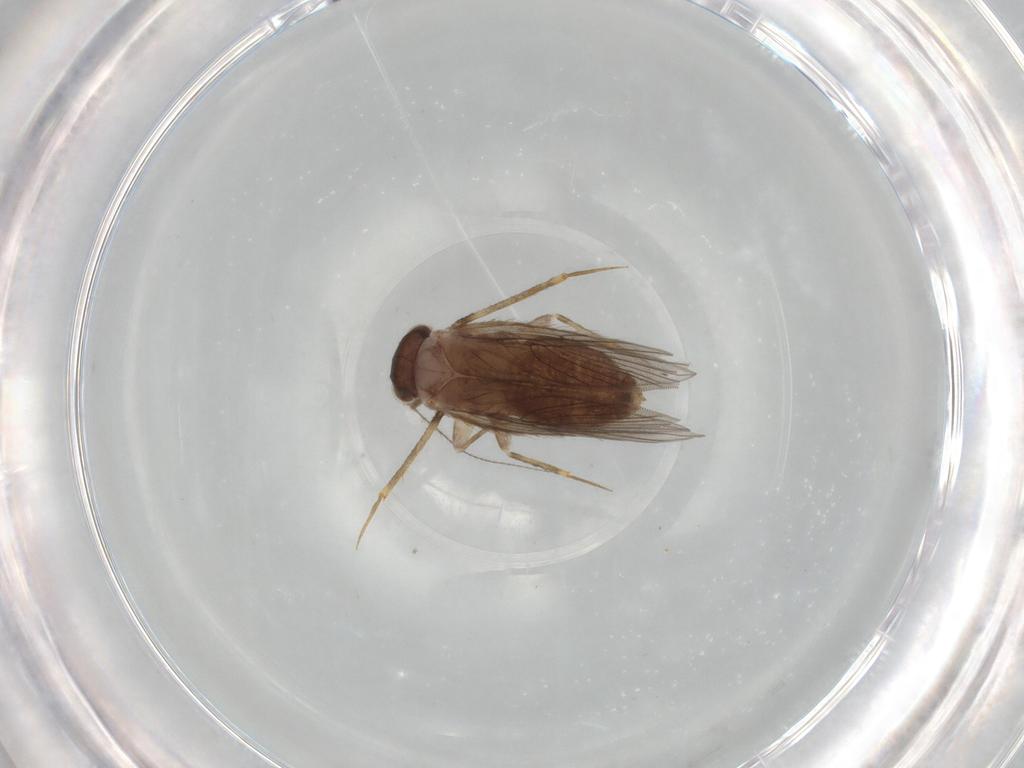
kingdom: Animalia
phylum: Arthropoda
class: Insecta
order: Psocodea
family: Lepidopsocidae
